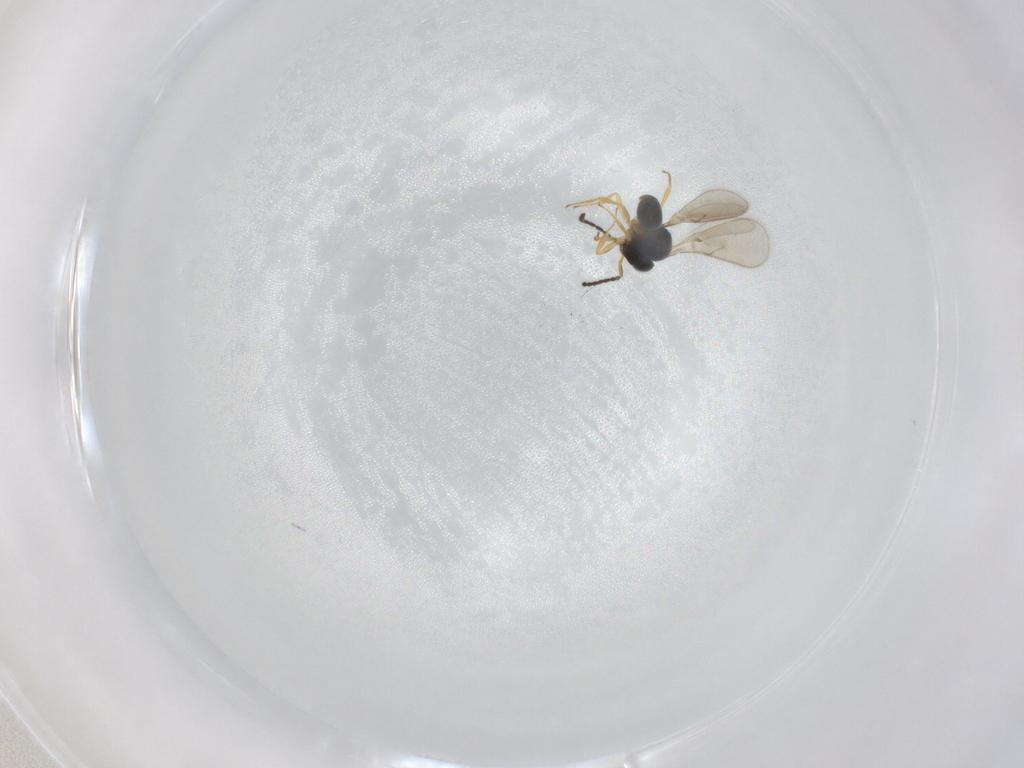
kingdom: Animalia
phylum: Arthropoda
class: Insecta
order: Hymenoptera
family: Scelionidae
